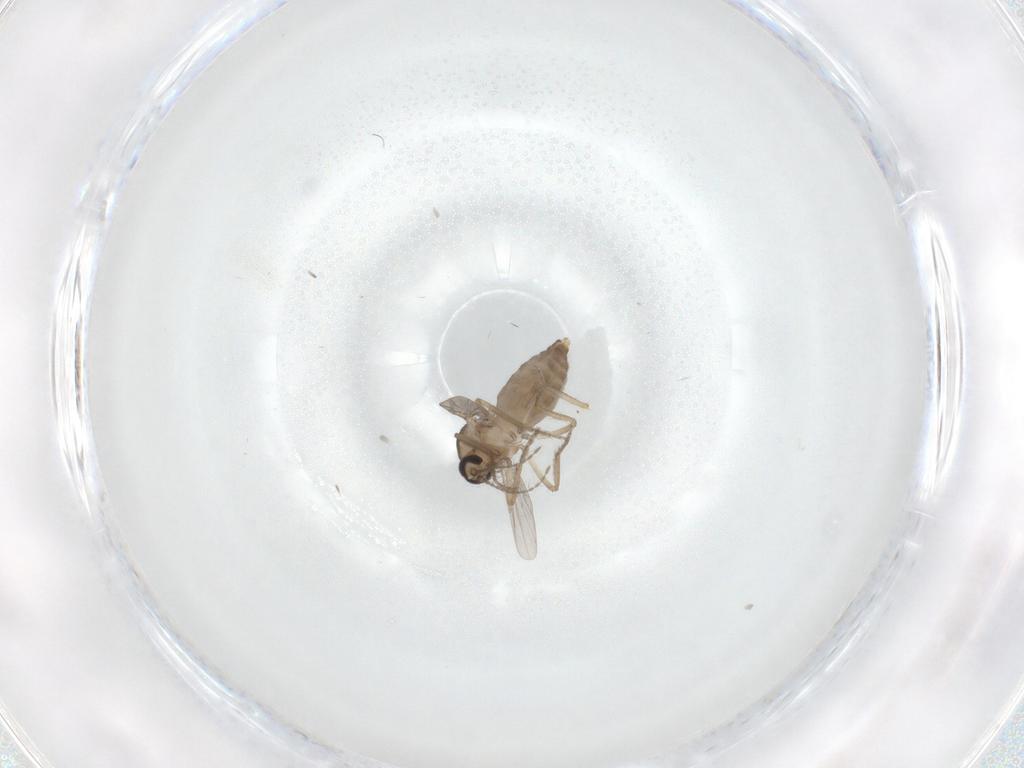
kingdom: Animalia
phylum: Arthropoda
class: Insecta
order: Diptera
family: Ceratopogonidae
